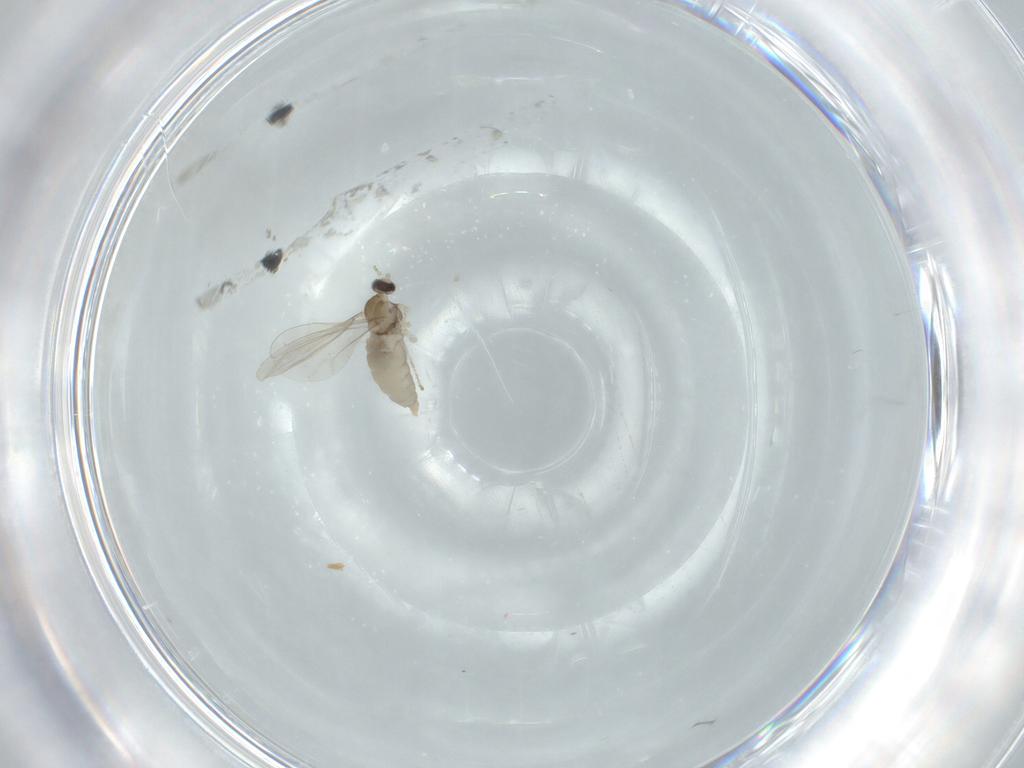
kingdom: Animalia
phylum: Arthropoda
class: Insecta
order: Diptera
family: Cecidomyiidae
